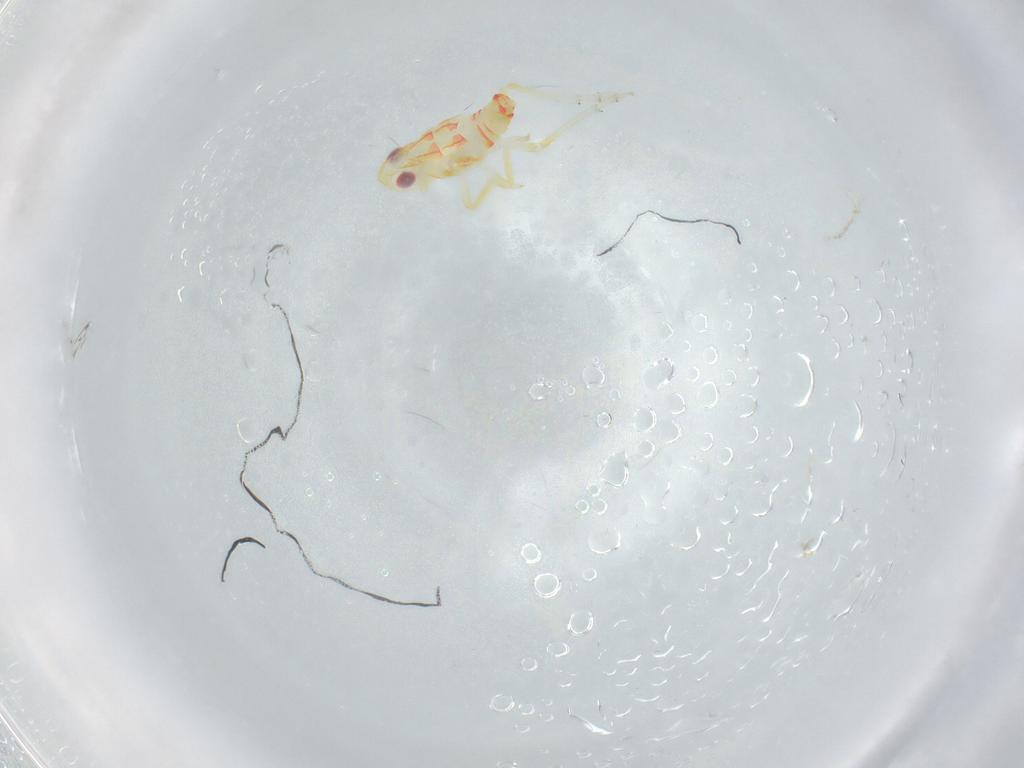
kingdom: Animalia
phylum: Arthropoda
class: Insecta
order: Hemiptera
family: Tropiduchidae
